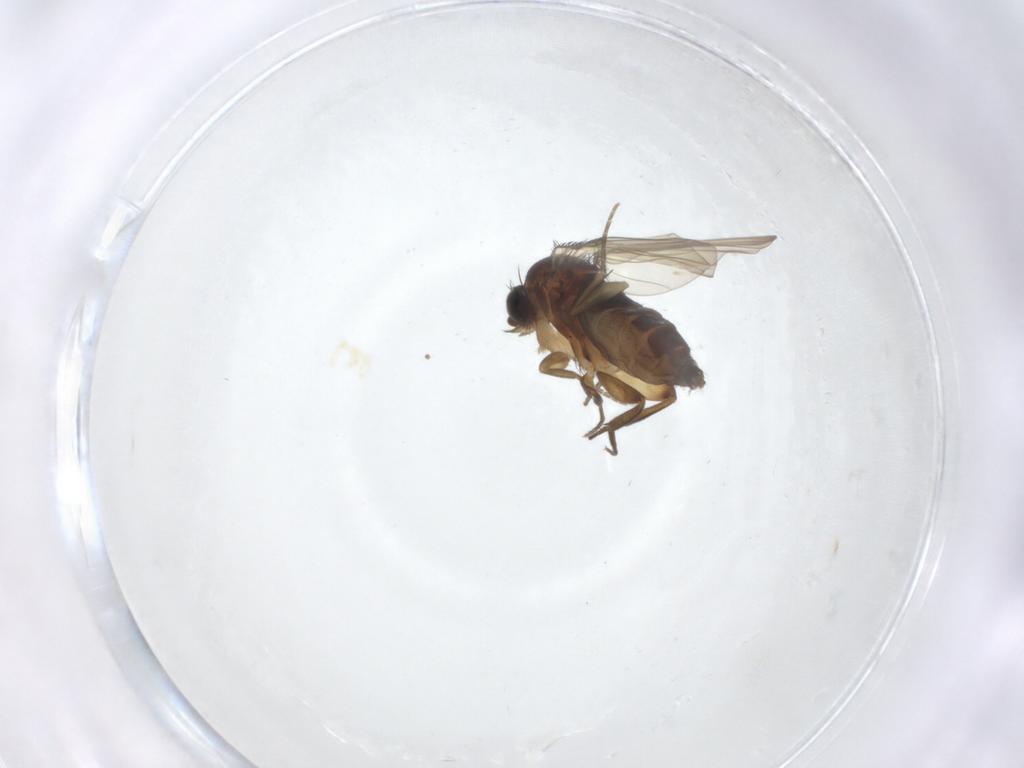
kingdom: Animalia
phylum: Arthropoda
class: Insecta
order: Diptera
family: Phoridae
